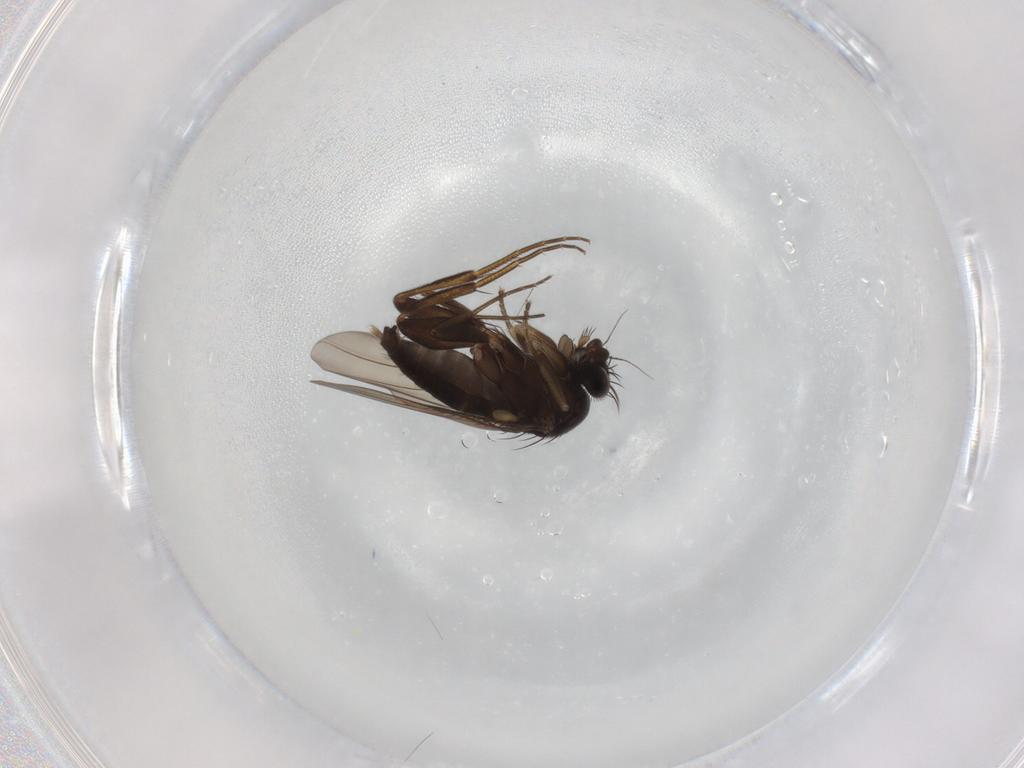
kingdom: Animalia
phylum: Arthropoda
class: Insecta
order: Diptera
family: Phoridae
